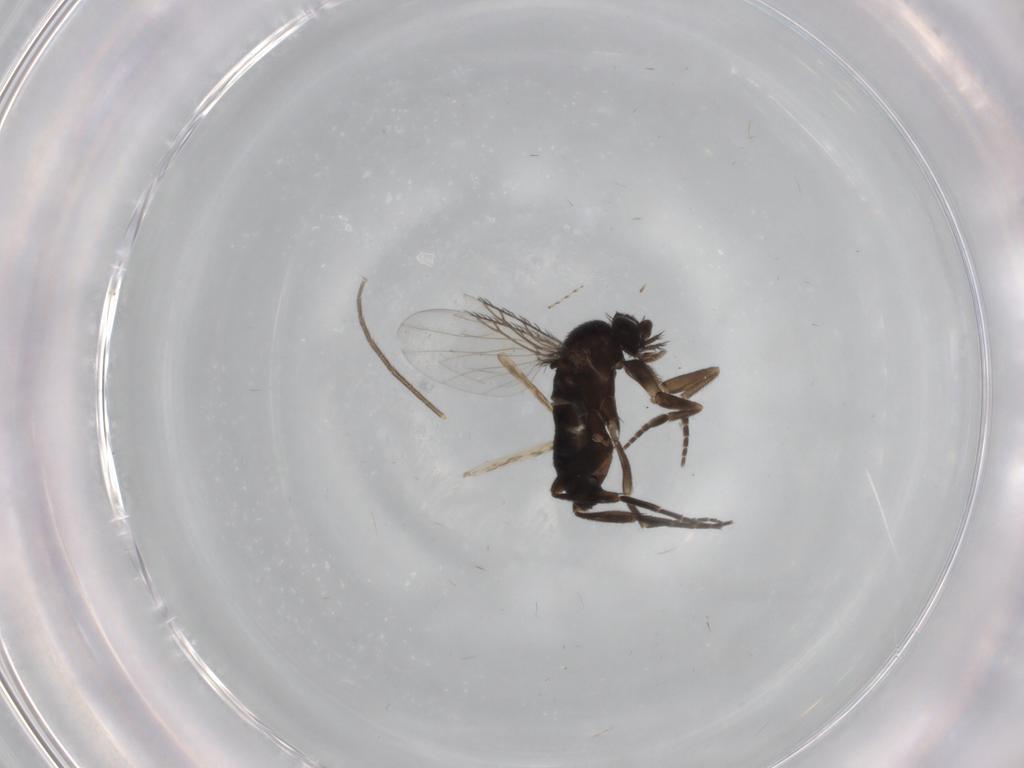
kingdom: Animalia
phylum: Arthropoda
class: Insecta
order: Diptera
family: Phoridae
